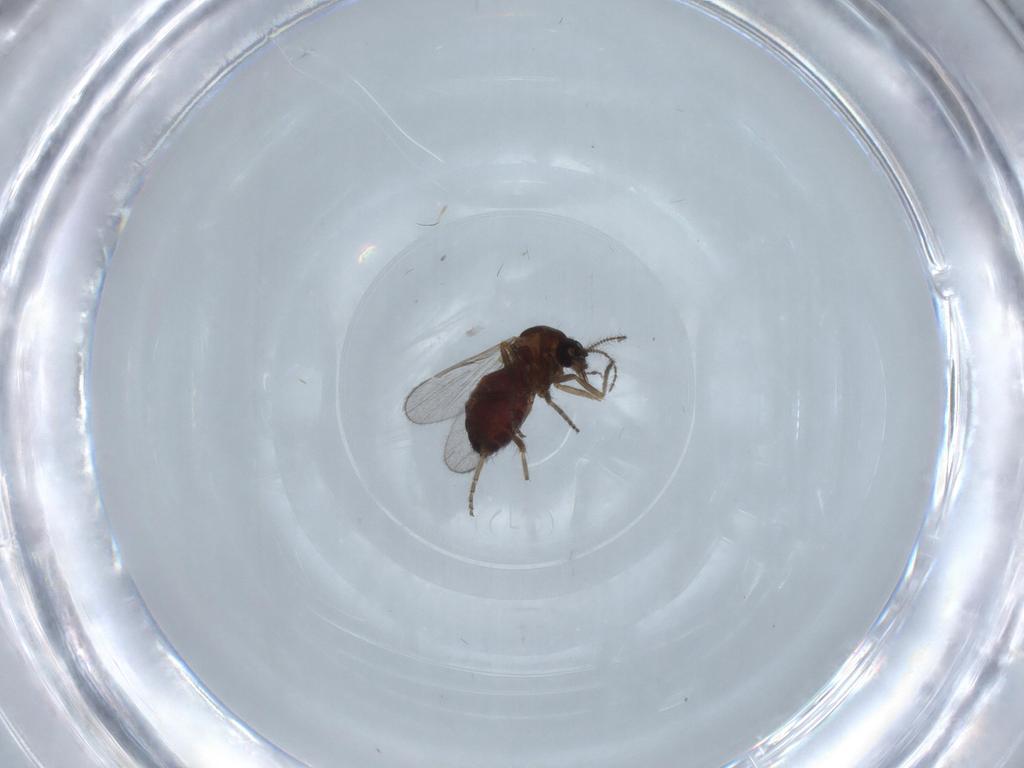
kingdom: Animalia
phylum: Arthropoda
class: Insecta
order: Diptera
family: Ceratopogonidae
